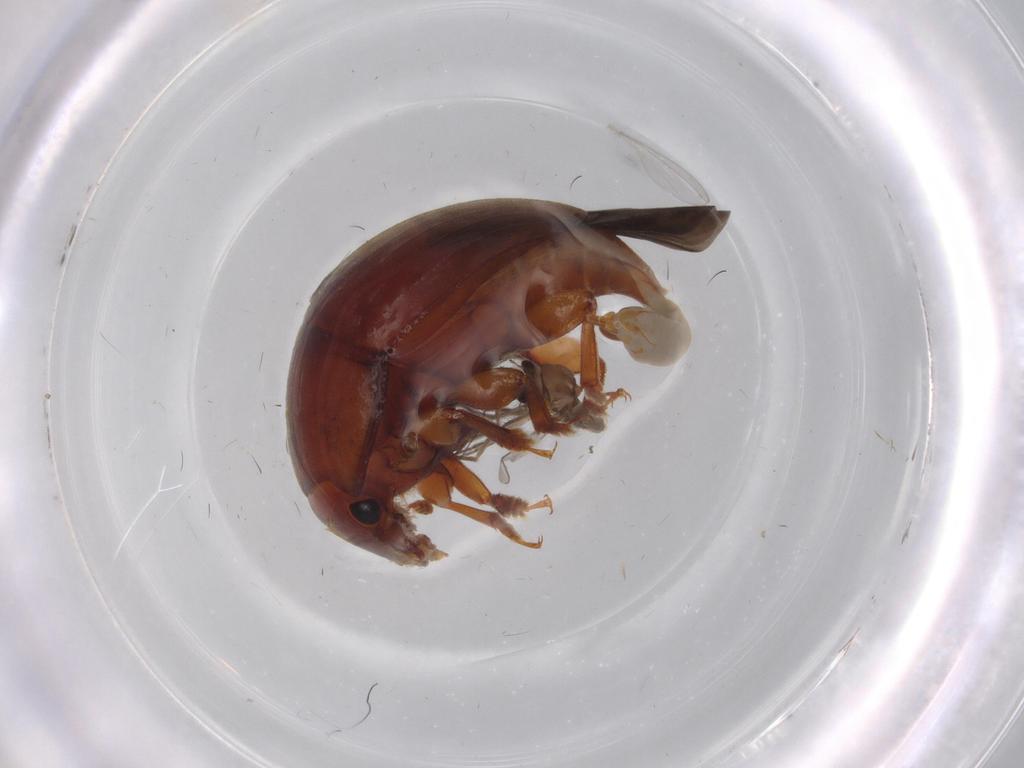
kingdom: Animalia
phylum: Arthropoda
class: Insecta
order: Coleoptera
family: Nitidulidae
